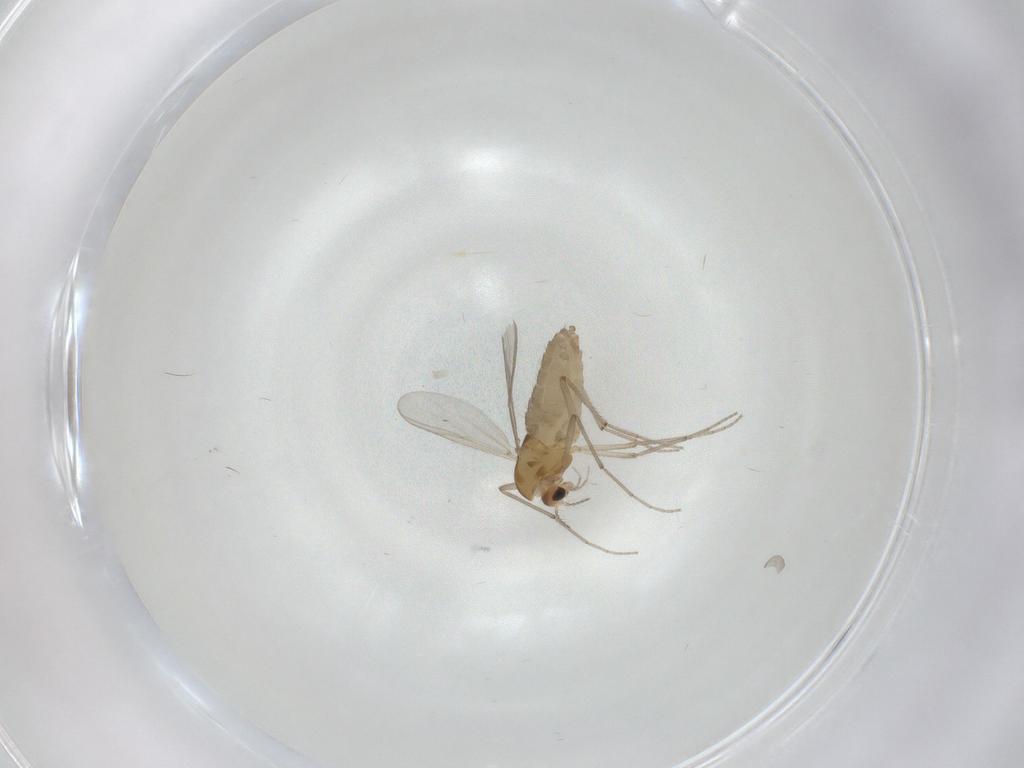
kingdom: Animalia
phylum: Arthropoda
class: Insecta
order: Diptera
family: Chironomidae
